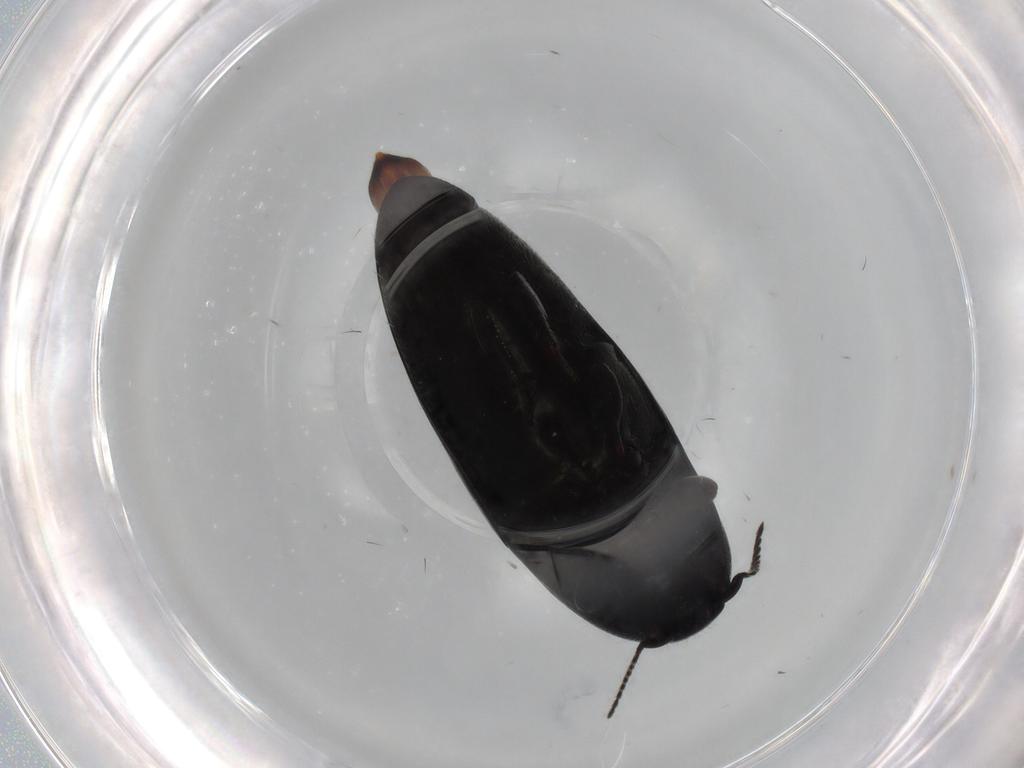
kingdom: Animalia
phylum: Arthropoda
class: Insecta
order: Coleoptera
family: Elateridae
